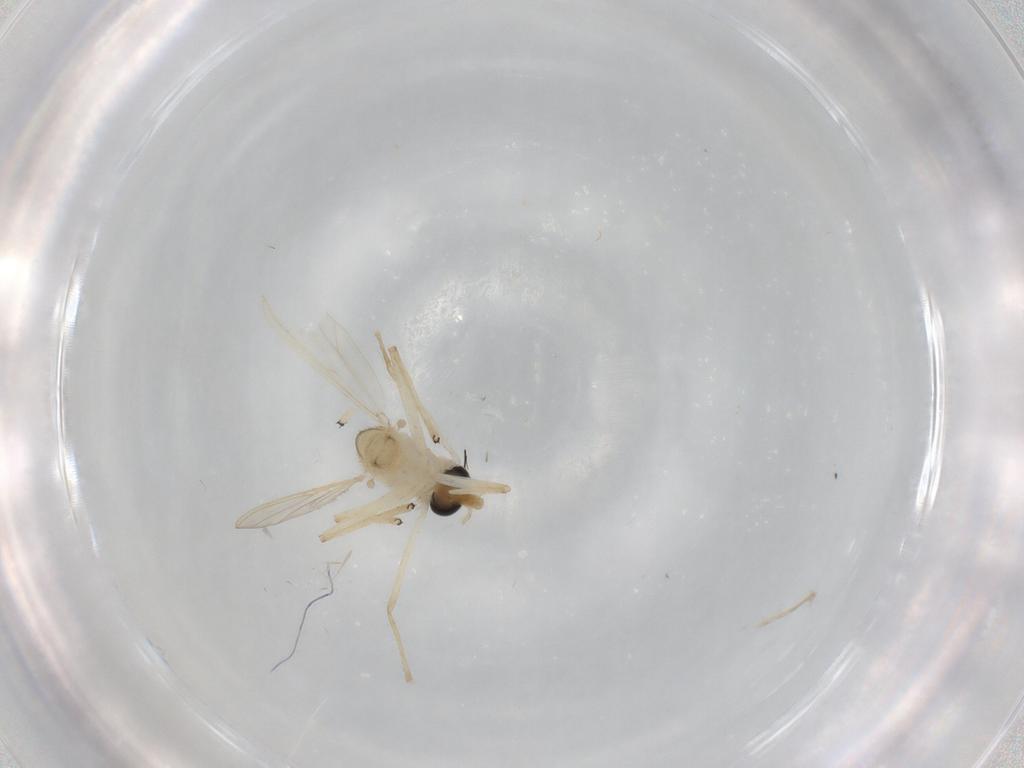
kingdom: Animalia
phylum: Arthropoda
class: Insecta
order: Diptera
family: Chironomidae
